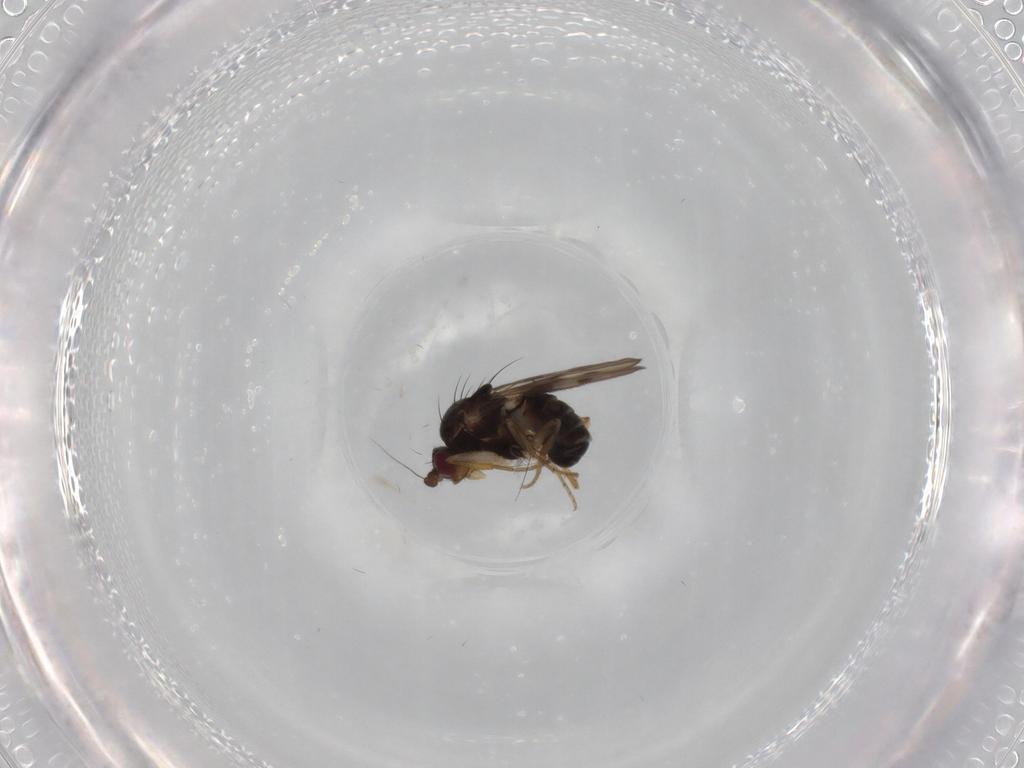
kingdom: Animalia
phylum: Arthropoda
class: Insecta
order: Diptera
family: Sphaeroceridae
